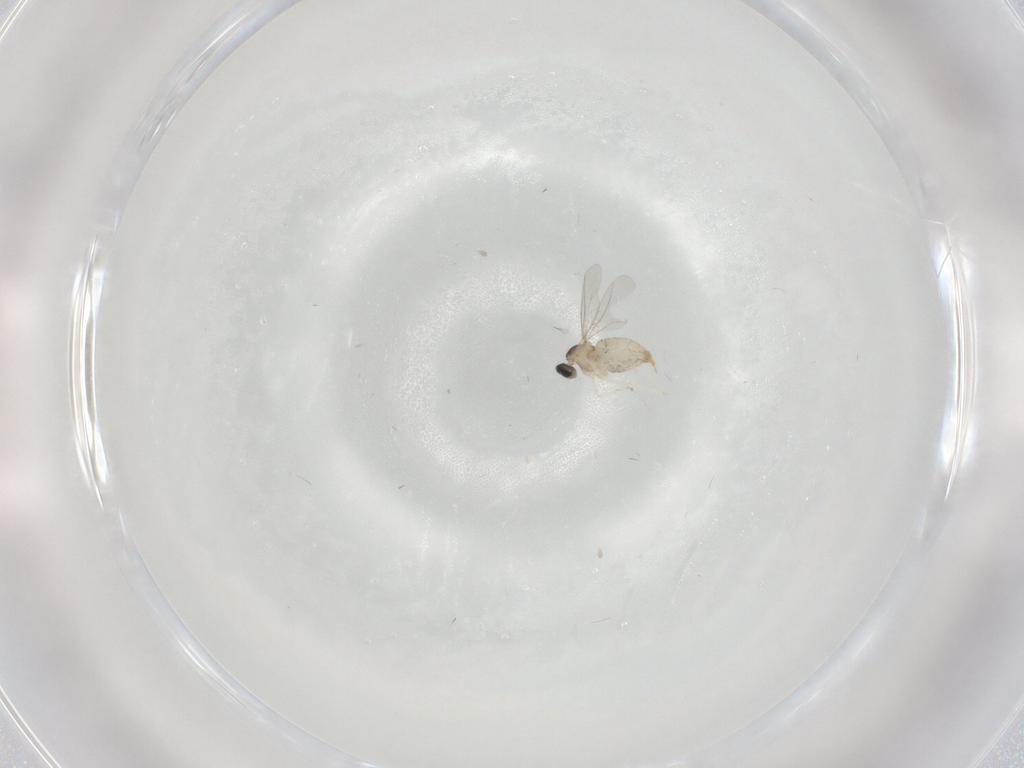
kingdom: Animalia
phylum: Arthropoda
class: Insecta
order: Diptera
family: Cecidomyiidae
